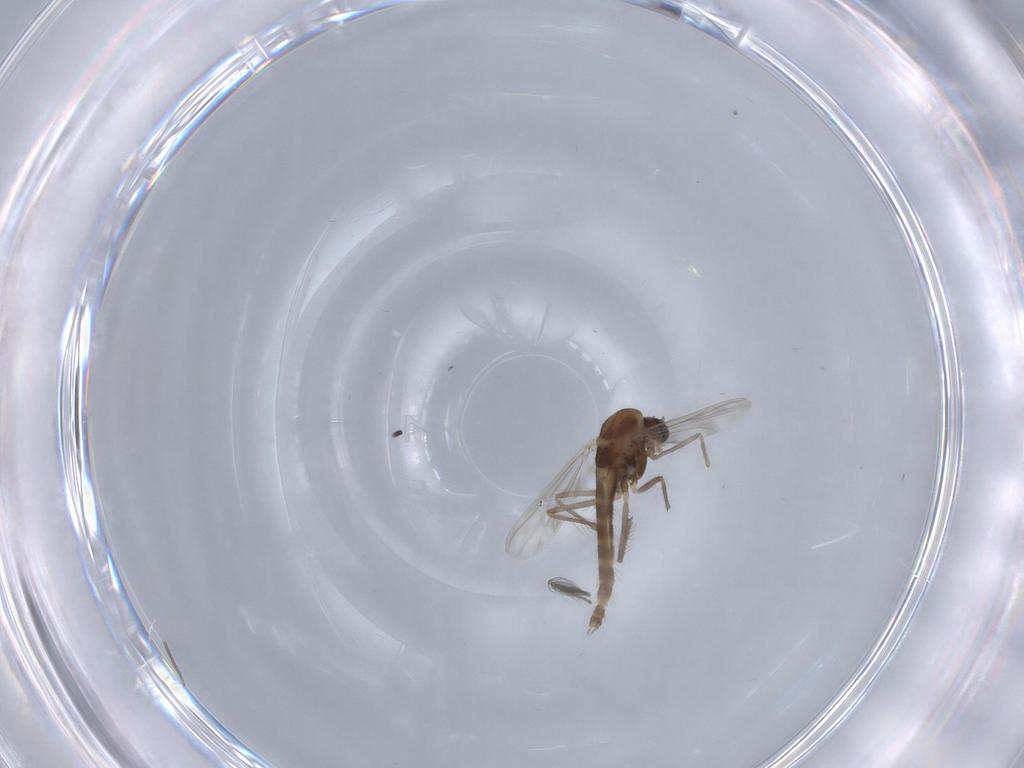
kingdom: Animalia
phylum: Arthropoda
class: Insecta
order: Diptera
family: Chironomidae
